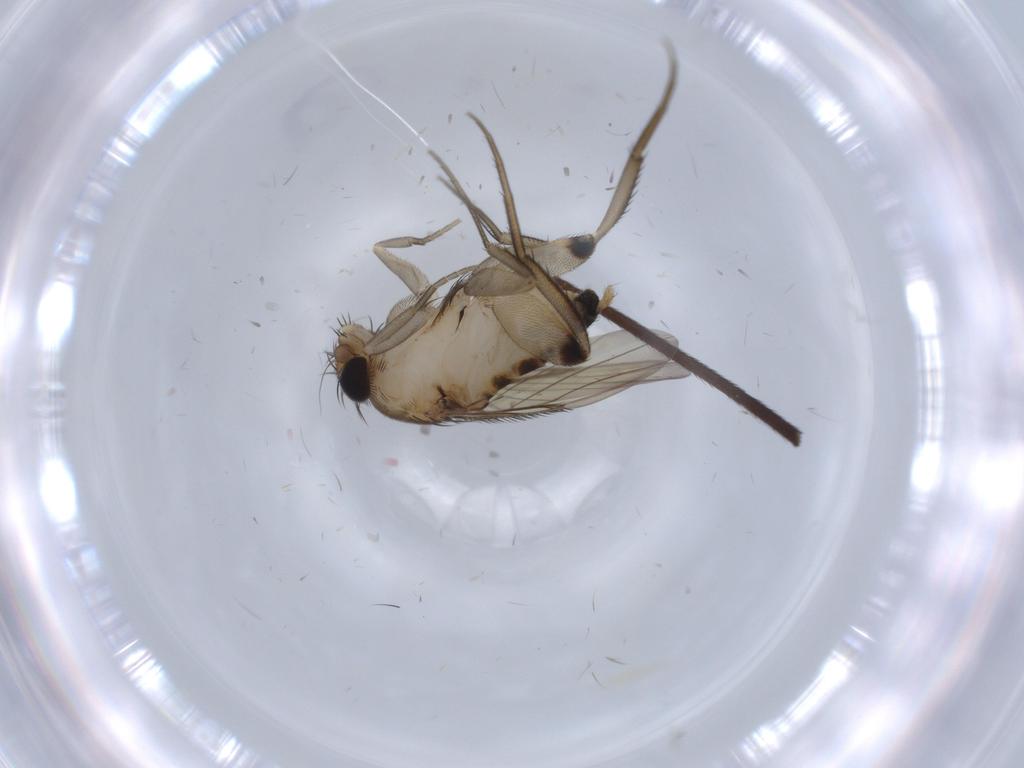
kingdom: Animalia
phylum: Arthropoda
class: Insecta
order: Diptera
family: Phoridae
